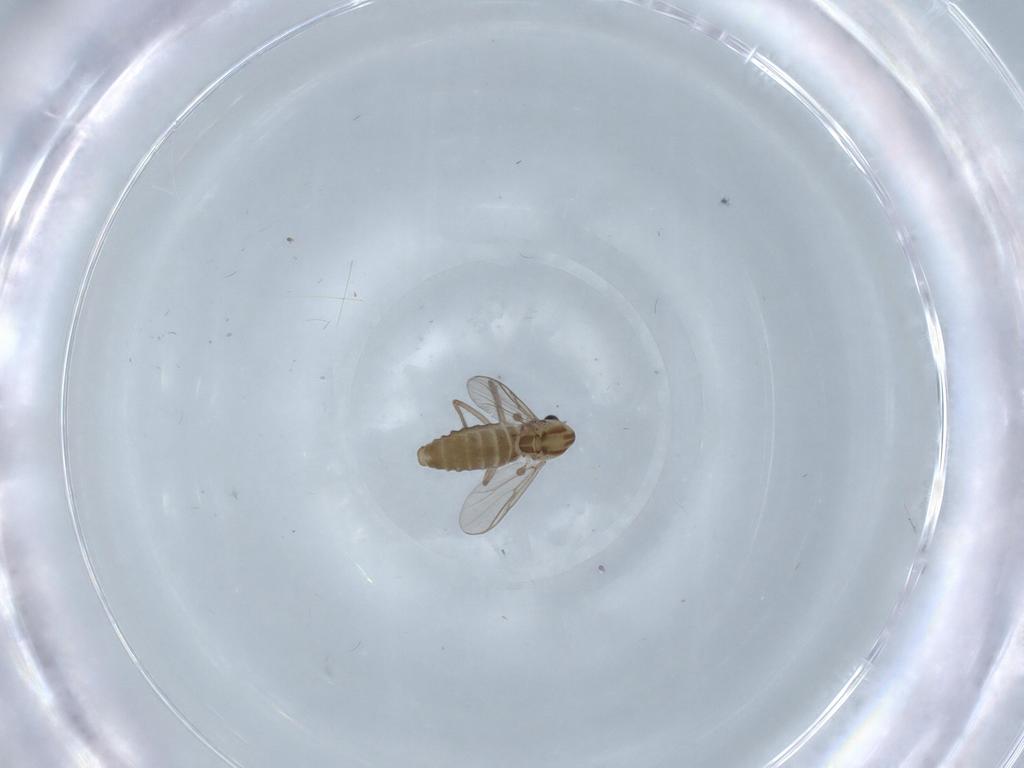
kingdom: Animalia
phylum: Arthropoda
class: Insecta
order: Diptera
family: Chironomidae
